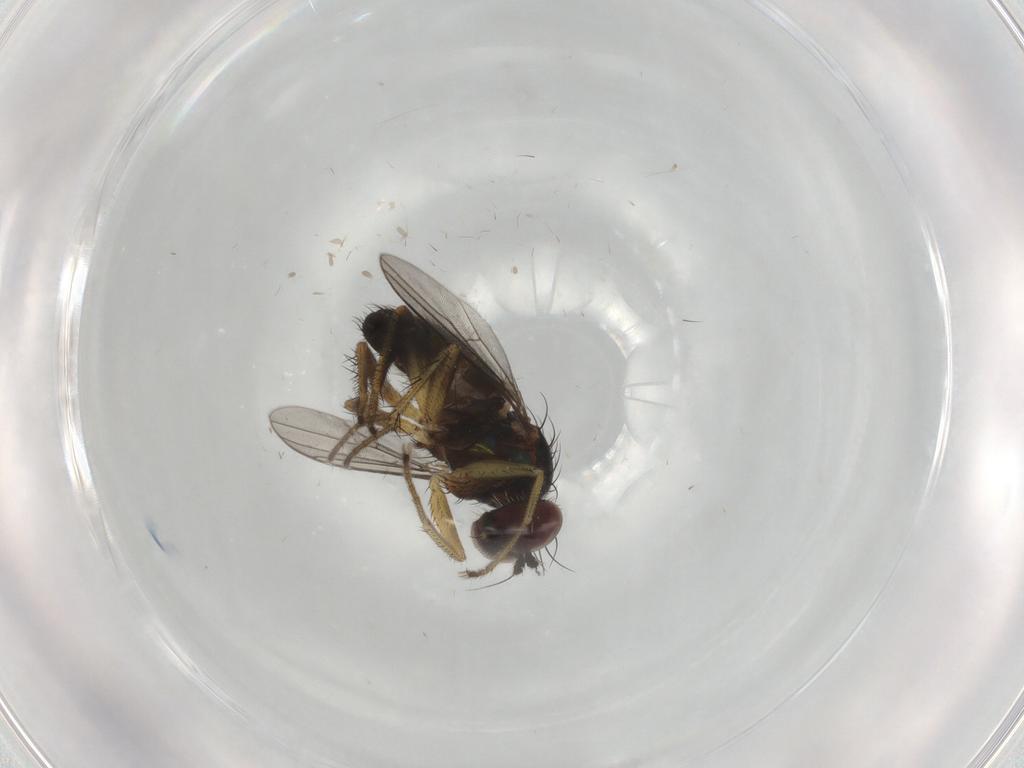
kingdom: Animalia
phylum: Arthropoda
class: Insecta
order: Diptera
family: Dolichopodidae
